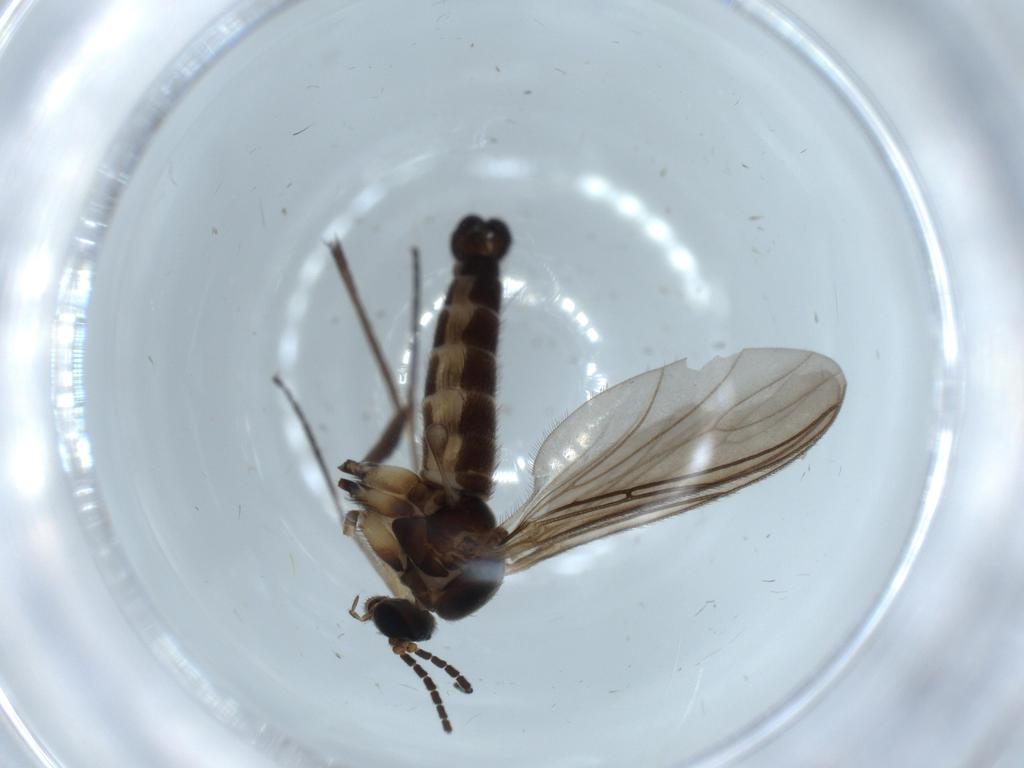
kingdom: Animalia
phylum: Arthropoda
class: Insecta
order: Diptera
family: Sciaridae
